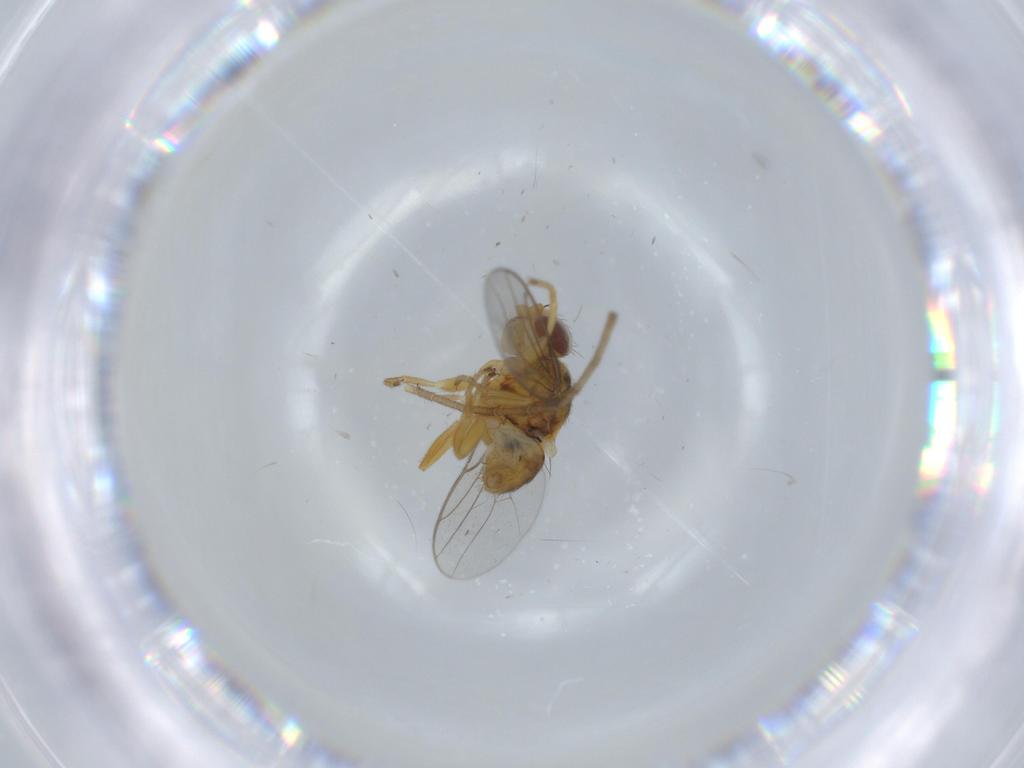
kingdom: Animalia
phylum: Arthropoda
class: Insecta
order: Diptera
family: Chloropidae
